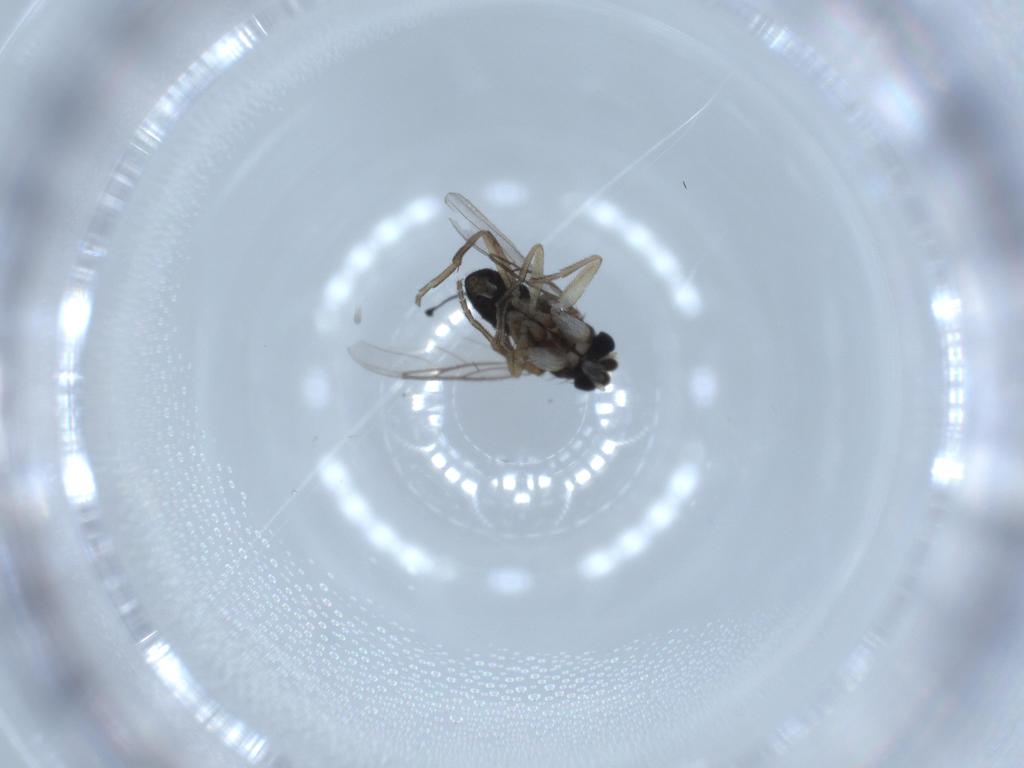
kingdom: Animalia
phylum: Arthropoda
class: Insecta
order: Diptera
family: Phoridae
